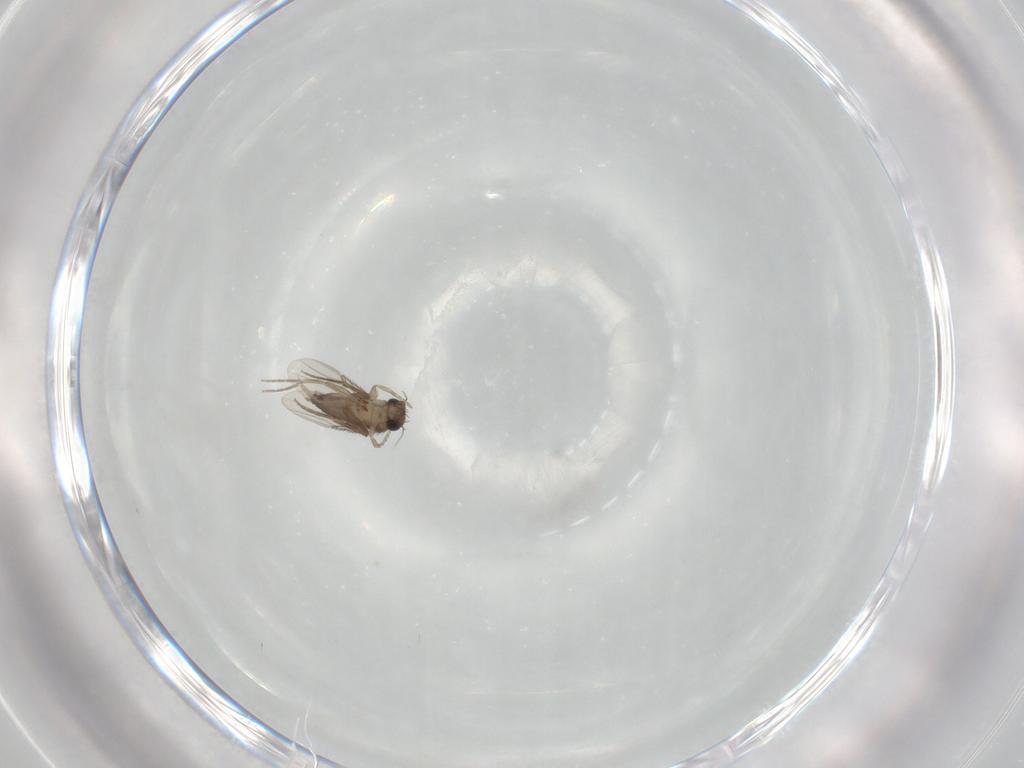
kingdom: Animalia
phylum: Arthropoda
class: Insecta
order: Diptera
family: Phoridae
